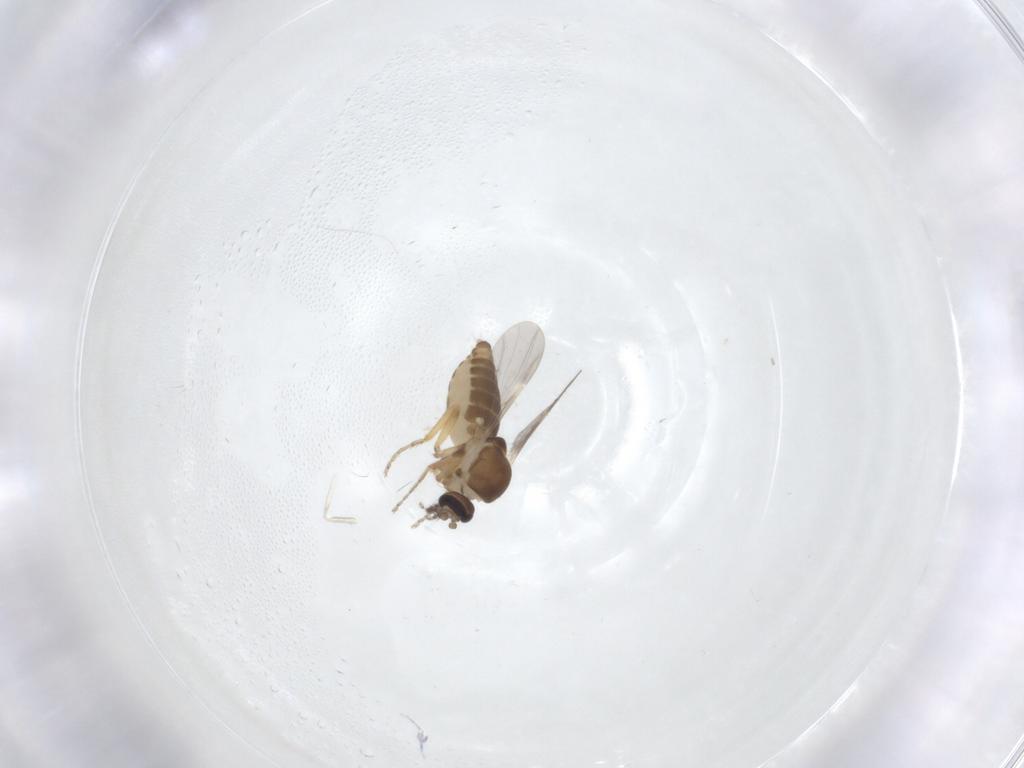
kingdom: Animalia
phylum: Arthropoda
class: Insecta
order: Diptera
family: Ceratopogonidae
